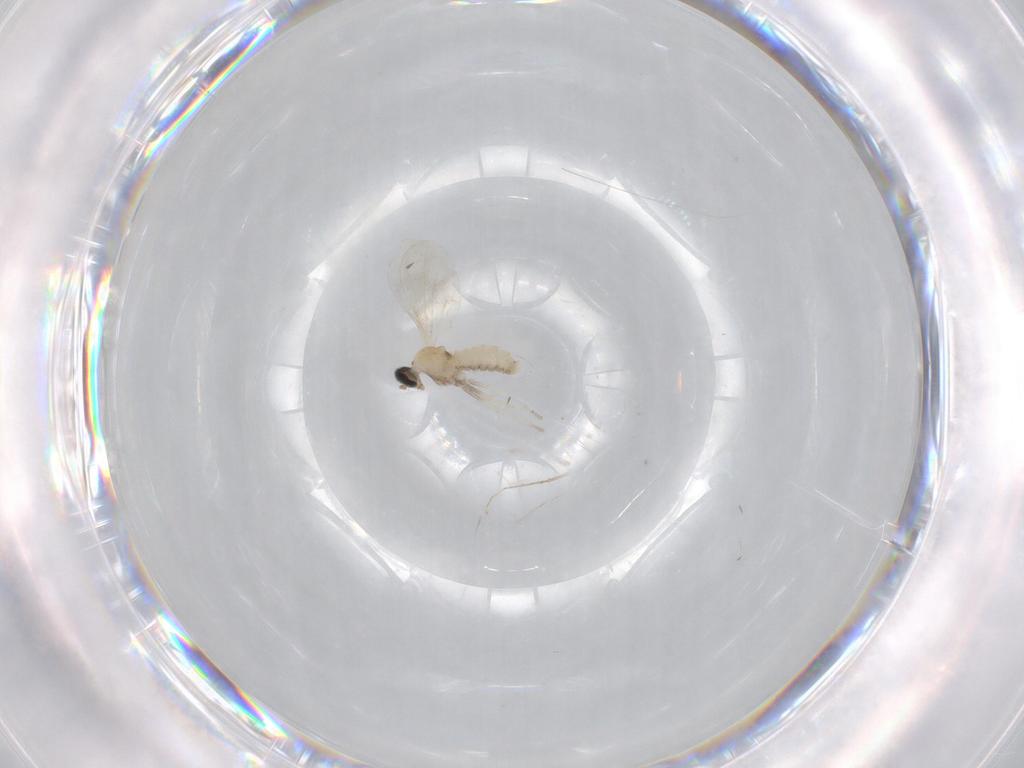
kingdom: Animalia
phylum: Arthropoda
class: Insecta
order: Diptera
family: Cecidomyiidae
